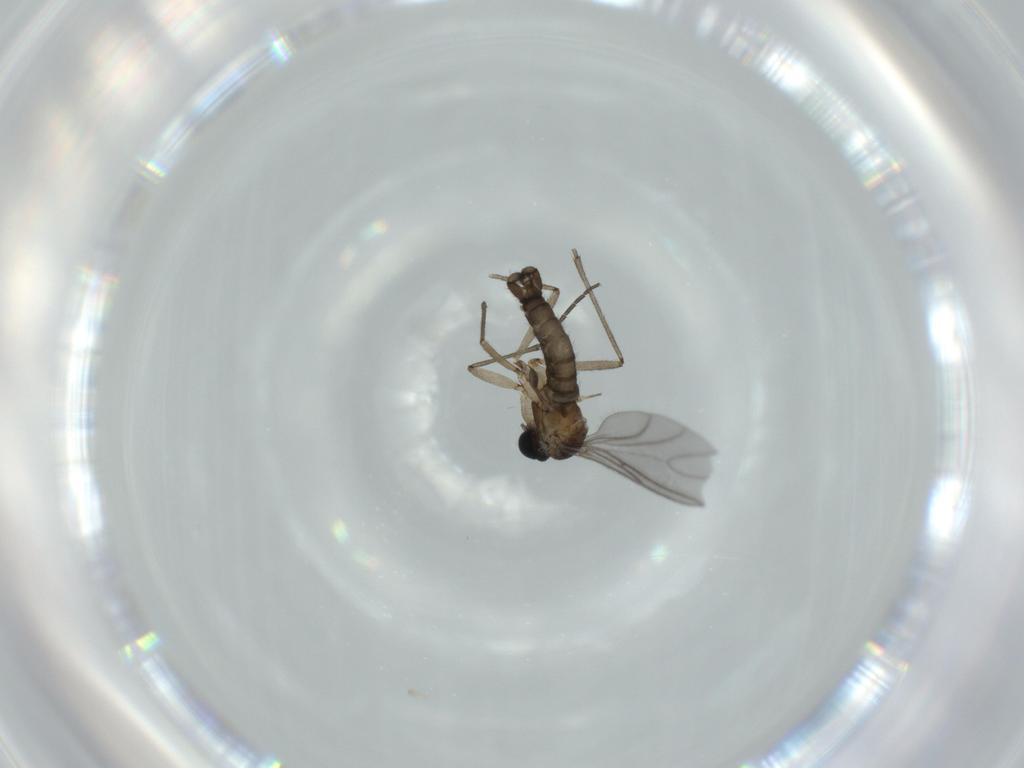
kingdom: Animalia
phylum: Arthropoda
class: Insecta
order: Diptera
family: Sciaridae
